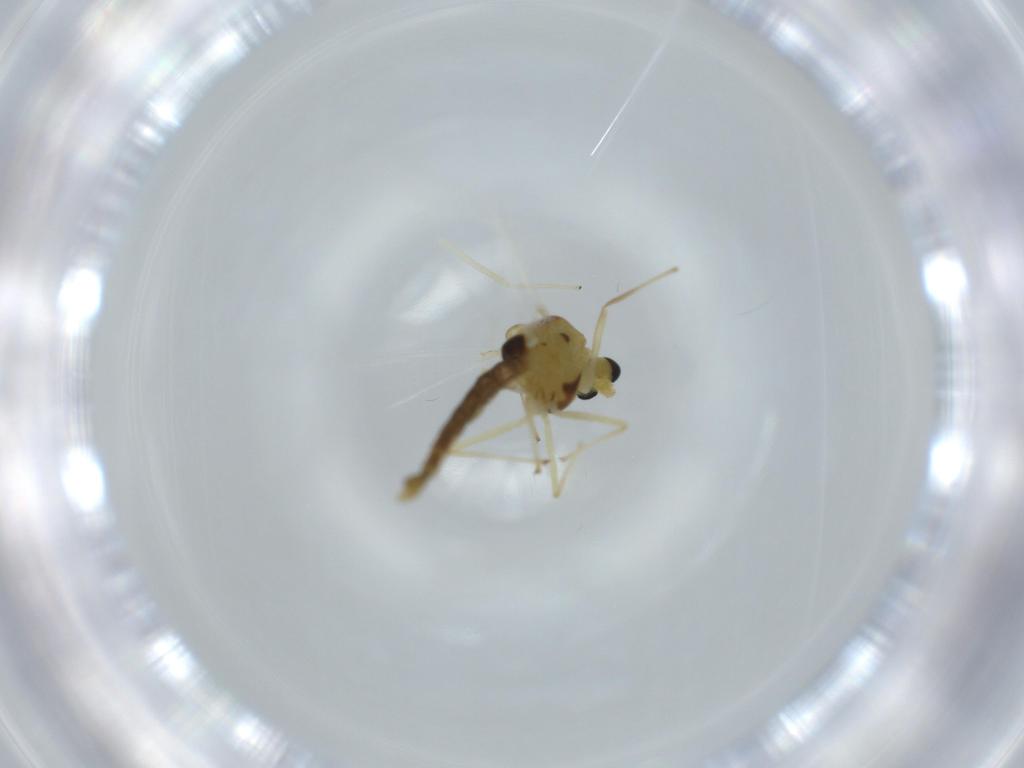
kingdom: Animalia
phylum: Arthropoda
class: Insecta
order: Diptera
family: Chironomidae
